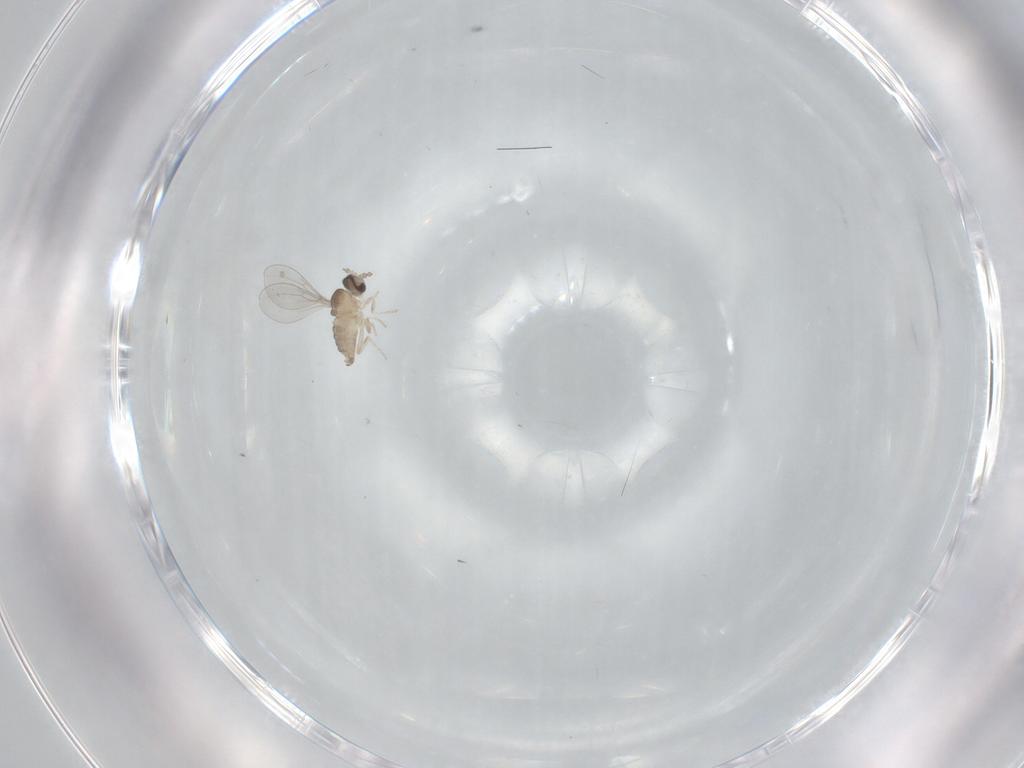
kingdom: Animalia
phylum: Arthropoda
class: Insecta
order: Diptera
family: Cecidomyiidae
